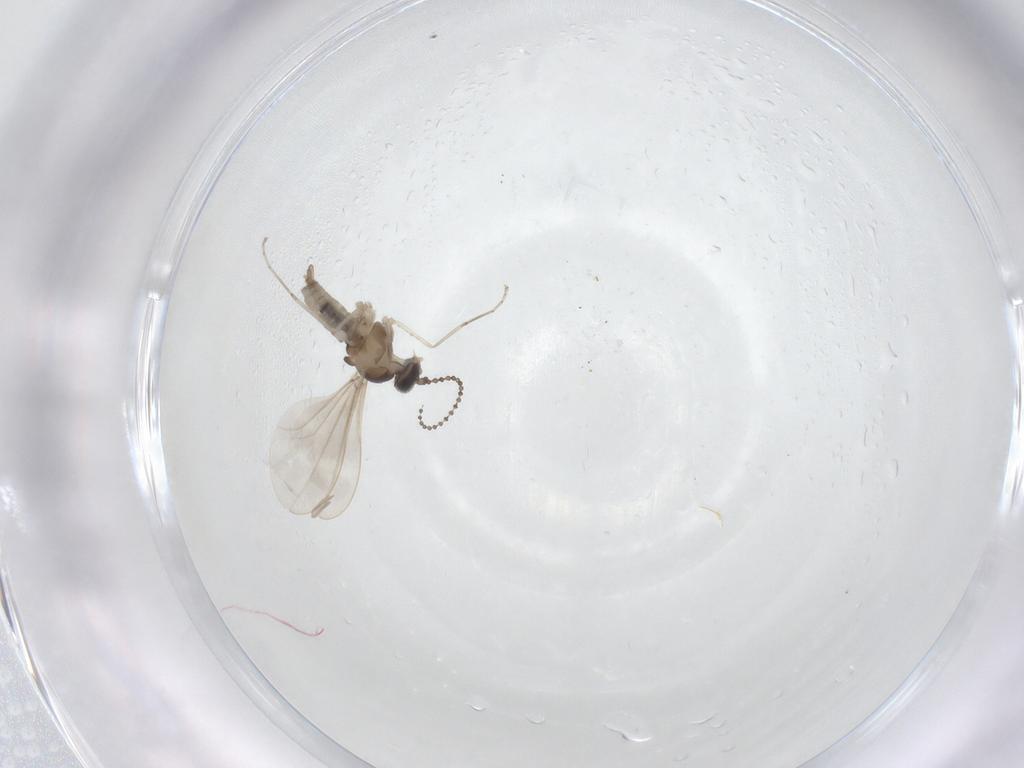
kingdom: Animalia
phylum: Arthropoda
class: Insecta
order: Diptera
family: Cecidomyiidae
